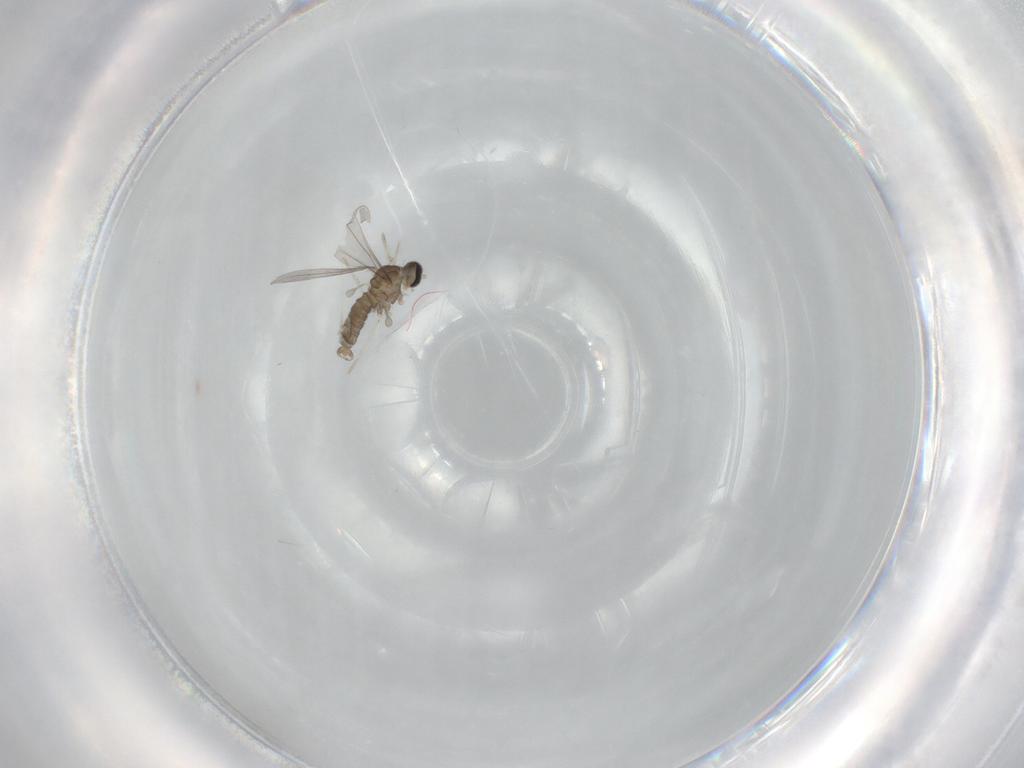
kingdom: Animalia
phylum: Arthropoda
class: Insecta
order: Diptera
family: Cecidomyiidae
